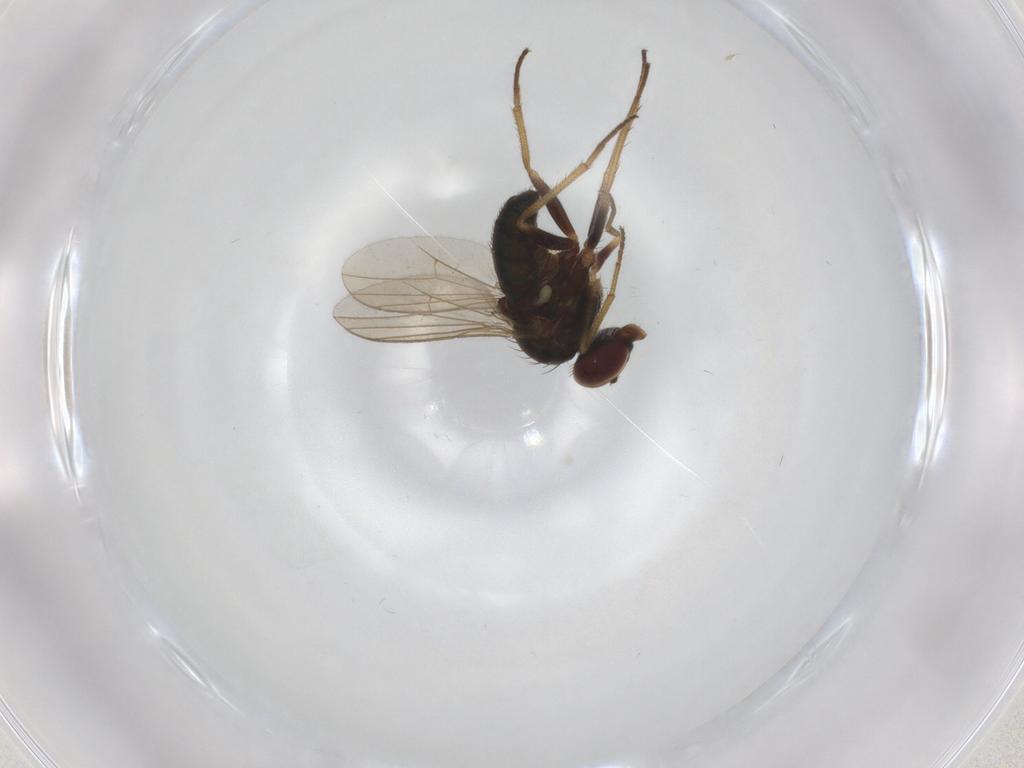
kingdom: Animalia
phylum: Arthropoda
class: Insecta
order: Diptera
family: Dolichopodidae
